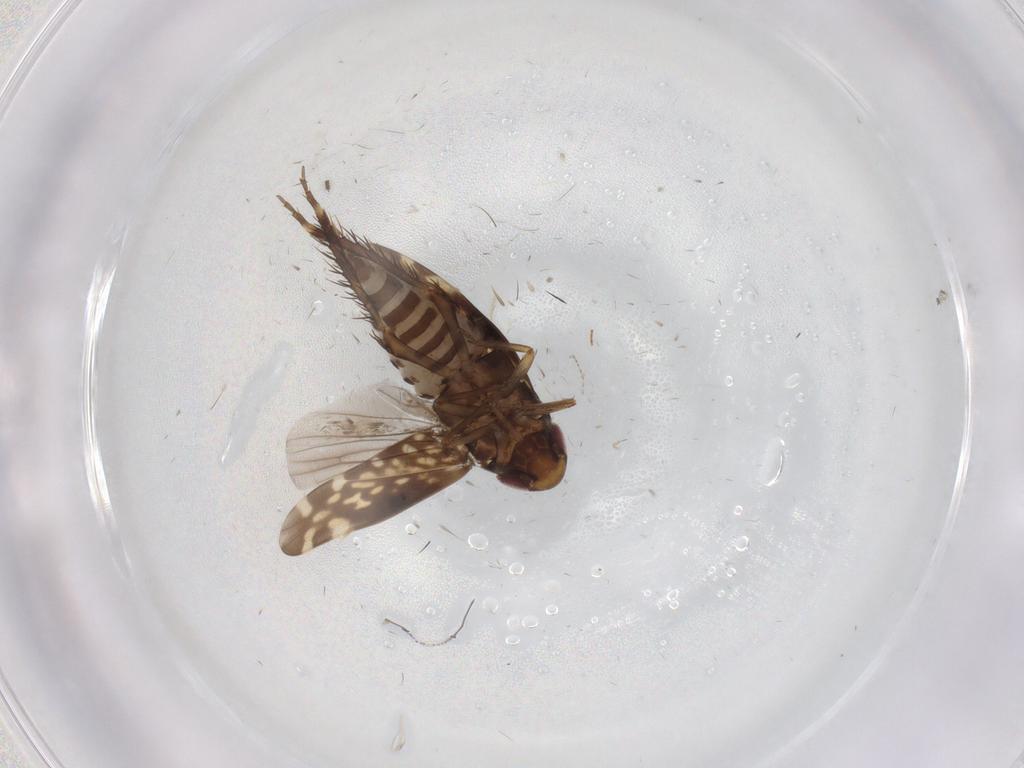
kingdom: Animalia
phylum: Arthropoda
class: Insecta
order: Hemiptera
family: Cicadellidae
